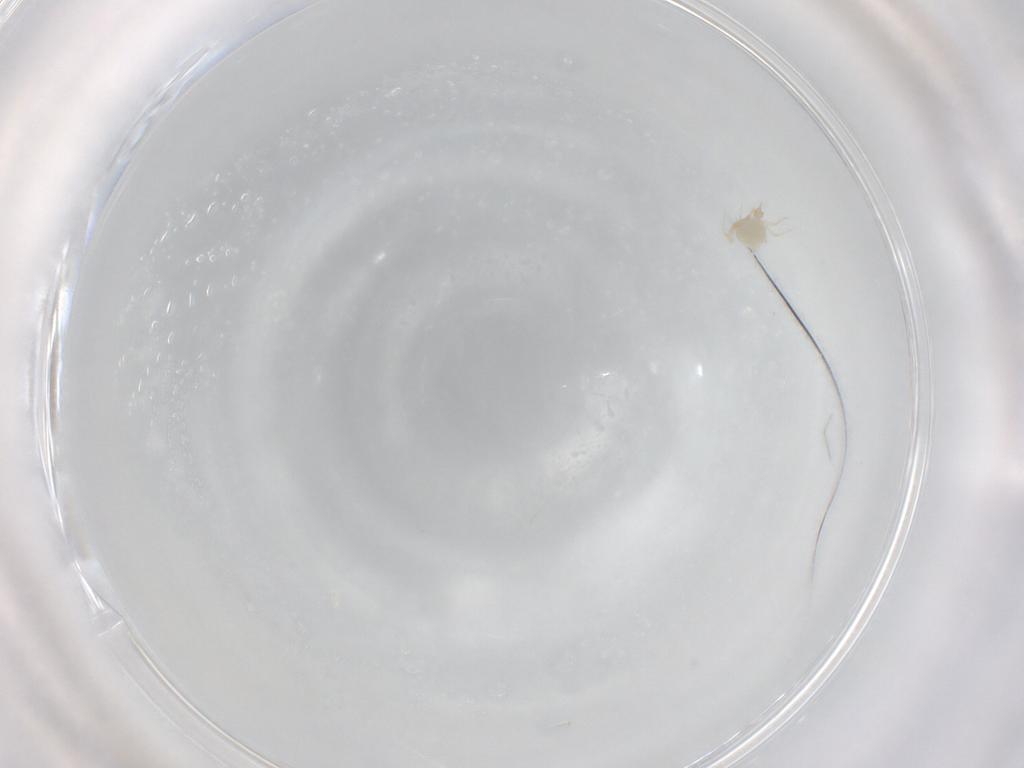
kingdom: Animalia
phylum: Arthropoda
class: Arachnida
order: Trombidiformes
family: Cunaxidae
